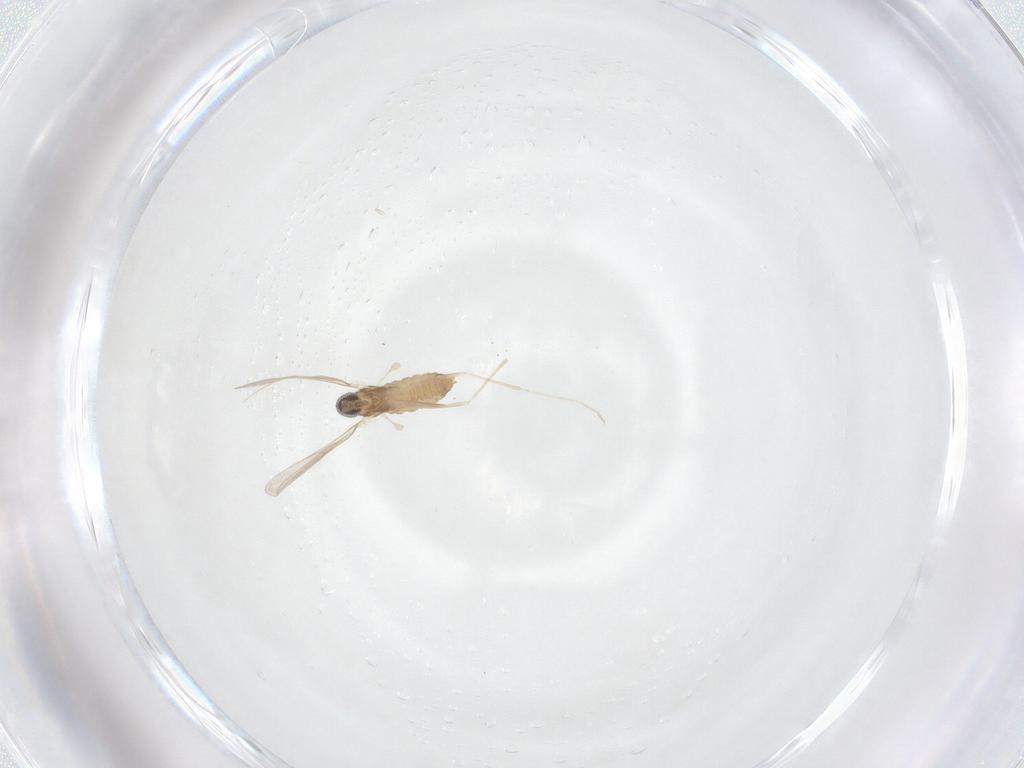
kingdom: Animalia
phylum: Arthropoda
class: Insecta
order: Diptera
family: Cecidomyiidae
